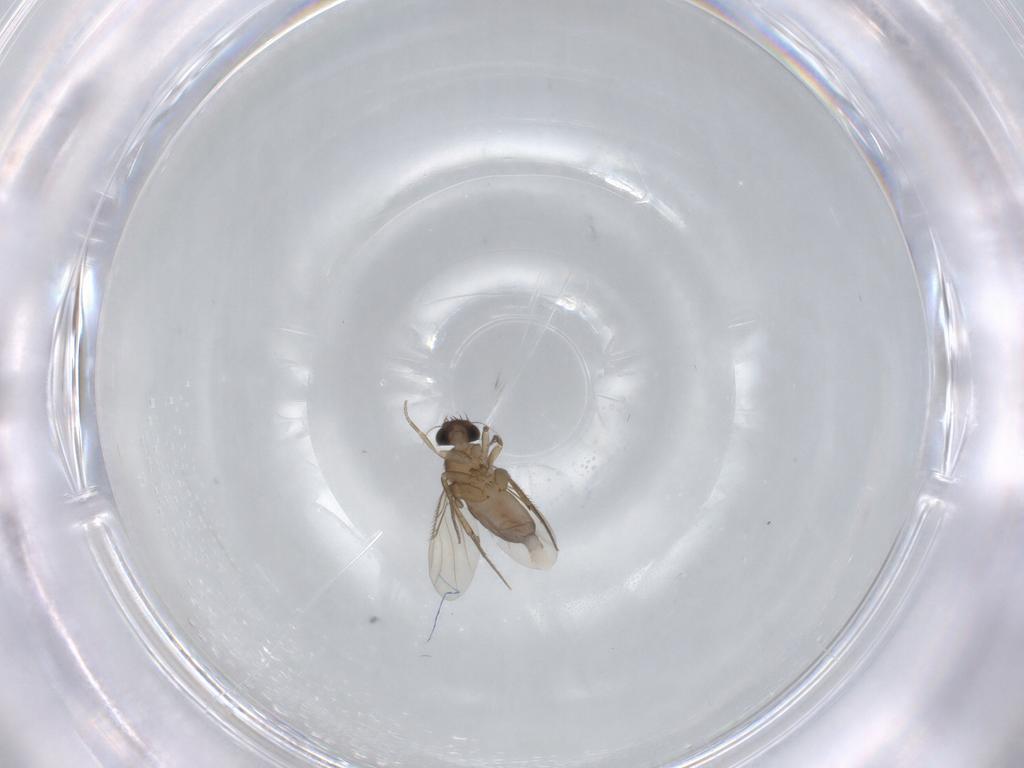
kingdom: Animalia
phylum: Arthropoda
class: Insecta
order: Diptera
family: Phoridae
